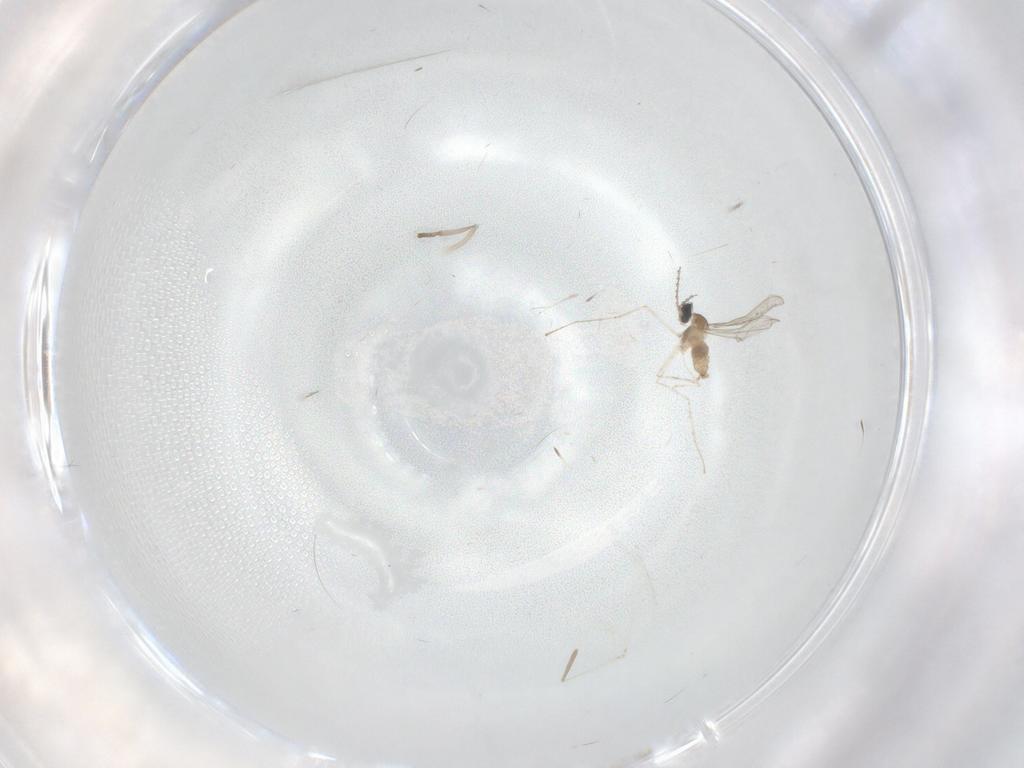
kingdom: Animalia
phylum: Arthropoda
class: Insecta
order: Diptera
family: Cecidomyiidae
